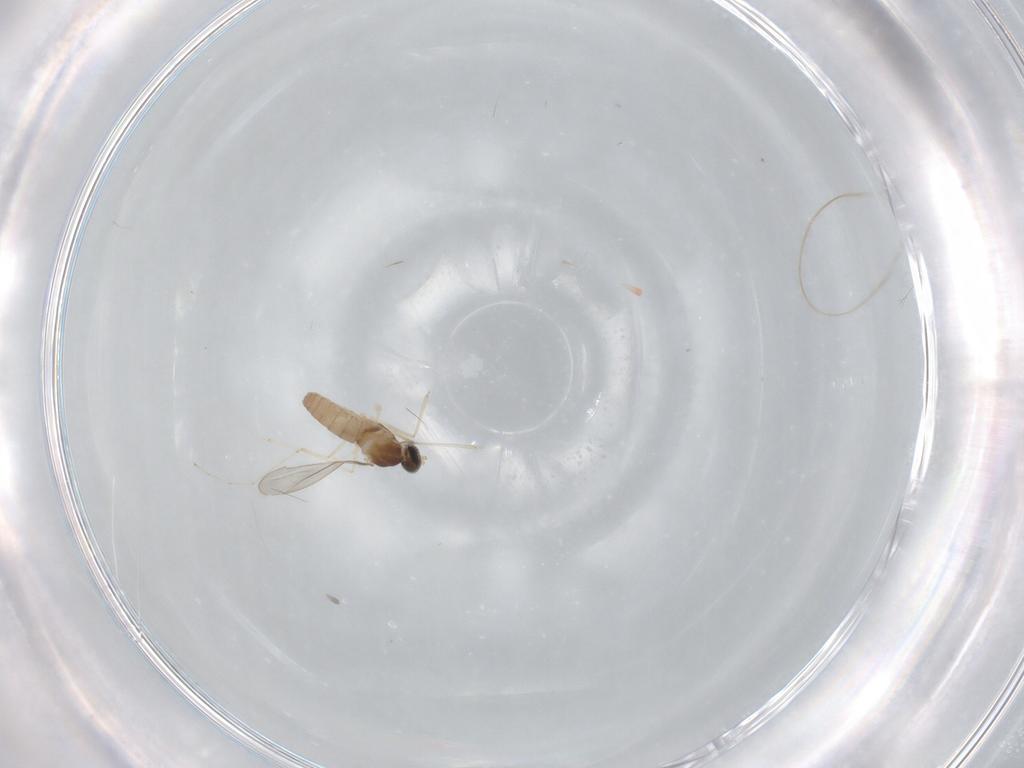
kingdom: Animalia
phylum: Arthropoda
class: Insecta
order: Diptera
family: Cecidomyiidae
